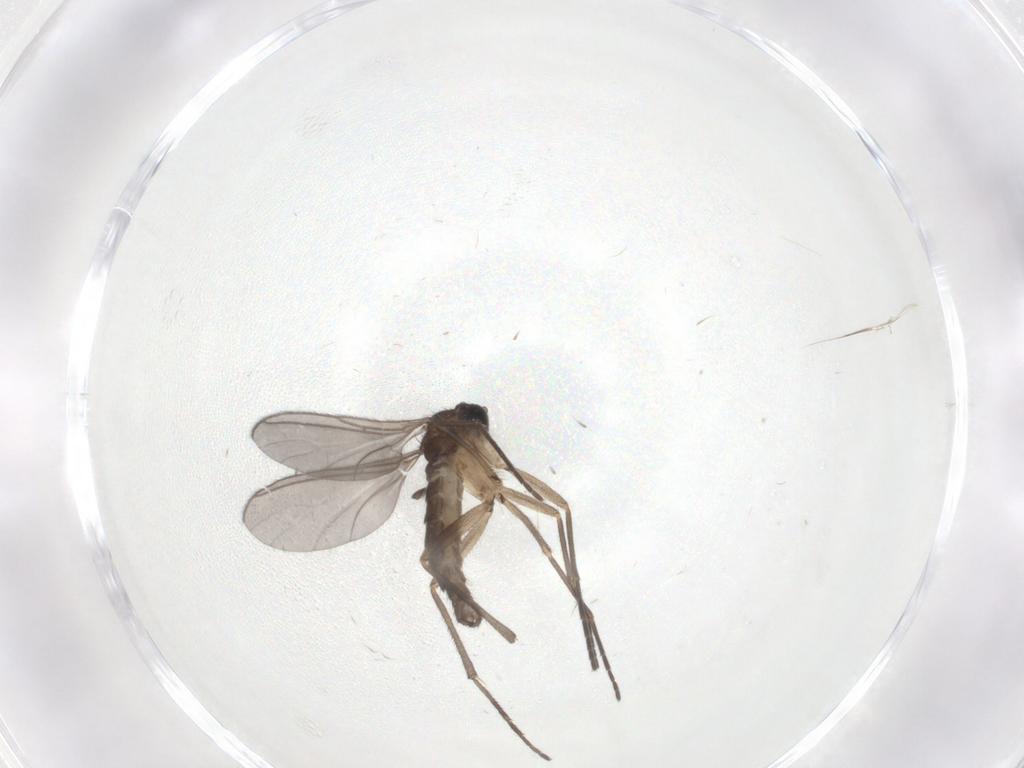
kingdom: Animalia
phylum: Arthropoda
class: Insecta
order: Diptera
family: Sciaridae
